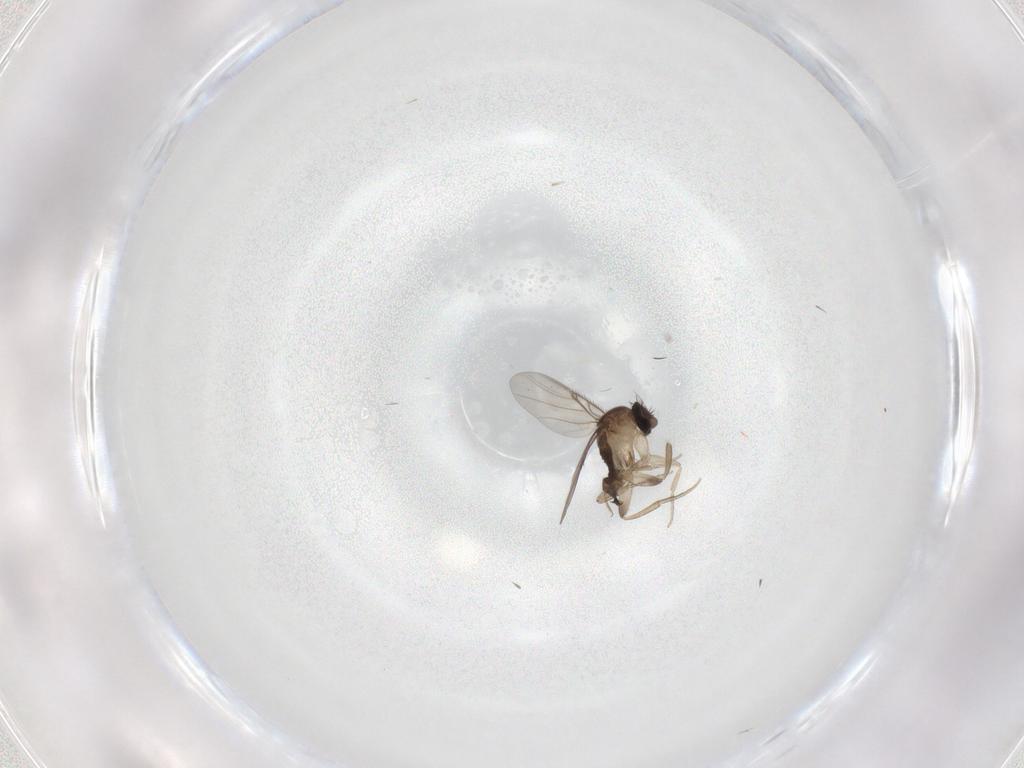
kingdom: Animalia
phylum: Arthropoda
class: Insecta
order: Diptera
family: Phoridae
